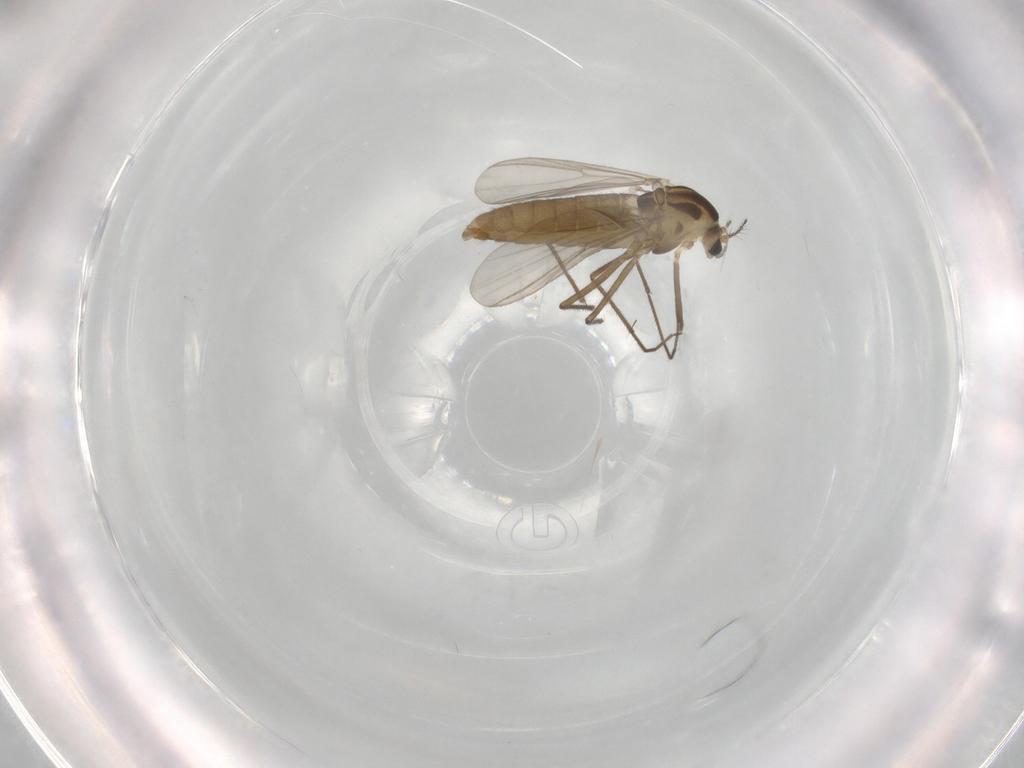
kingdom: Animalia
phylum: Arthropoda
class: Insecta
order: Diptera
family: Chironomidae
